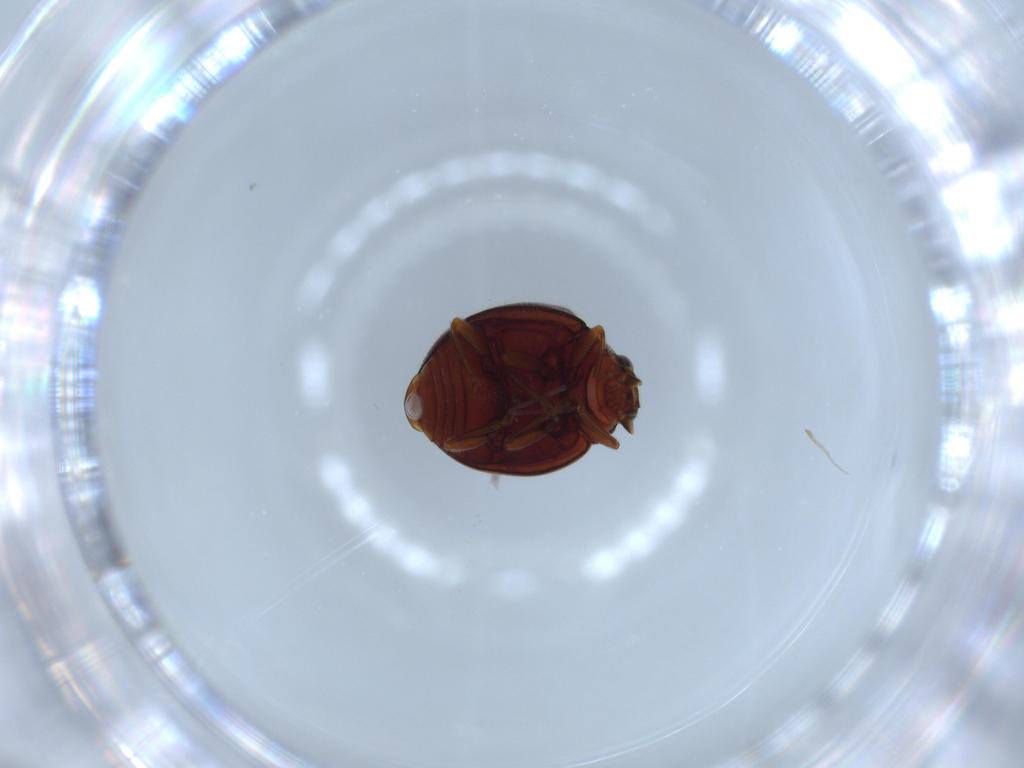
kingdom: Animalia
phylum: Arthropoda
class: Insecta
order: Coleoptera
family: Coccinellidae
